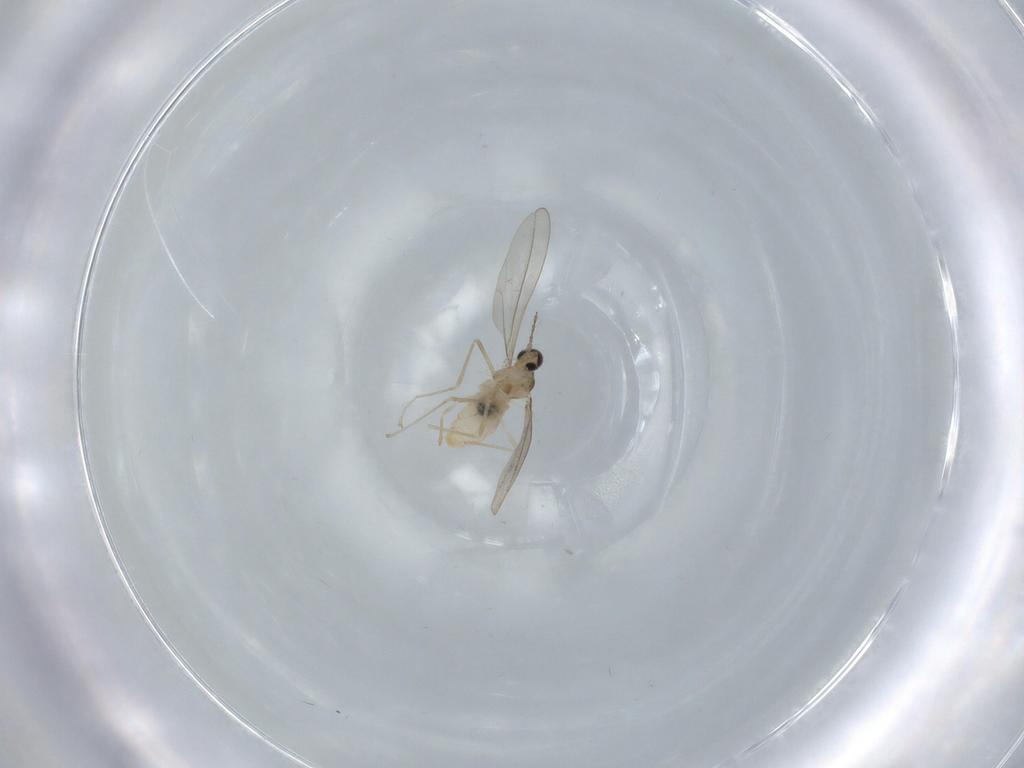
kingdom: Animalia
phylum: Arthropoda
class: Insecta
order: Diptera
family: Cecidomyiidae
